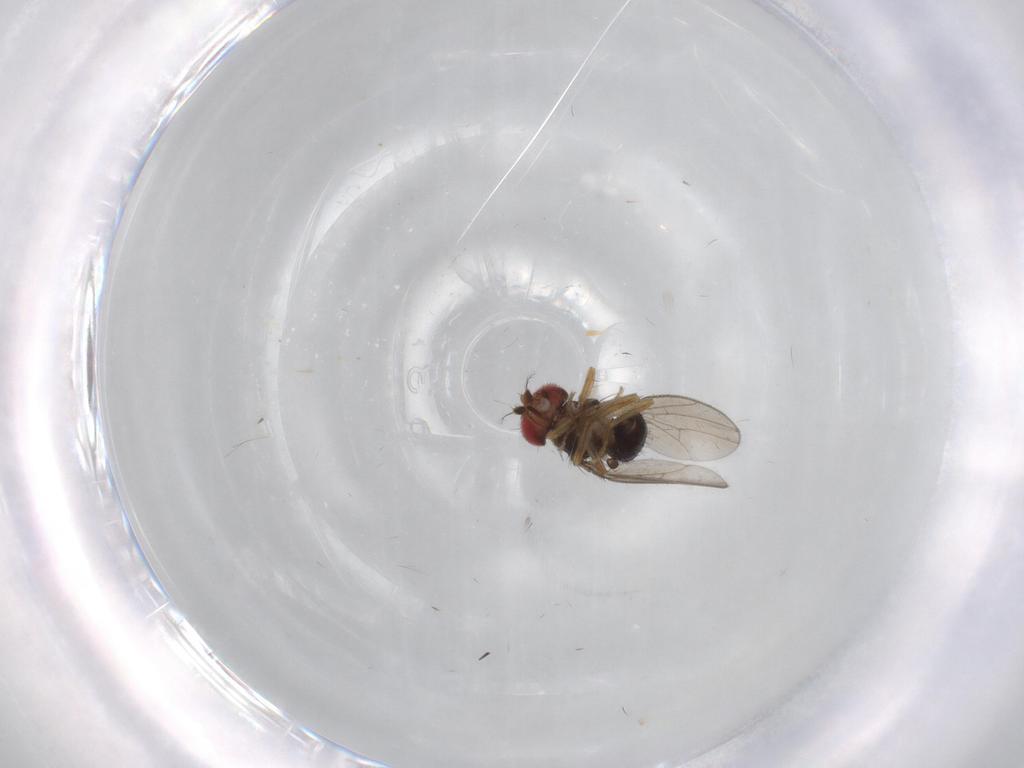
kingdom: Animalia
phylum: Arthropoda
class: Insecta
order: Diptera
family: Drosophilidae
